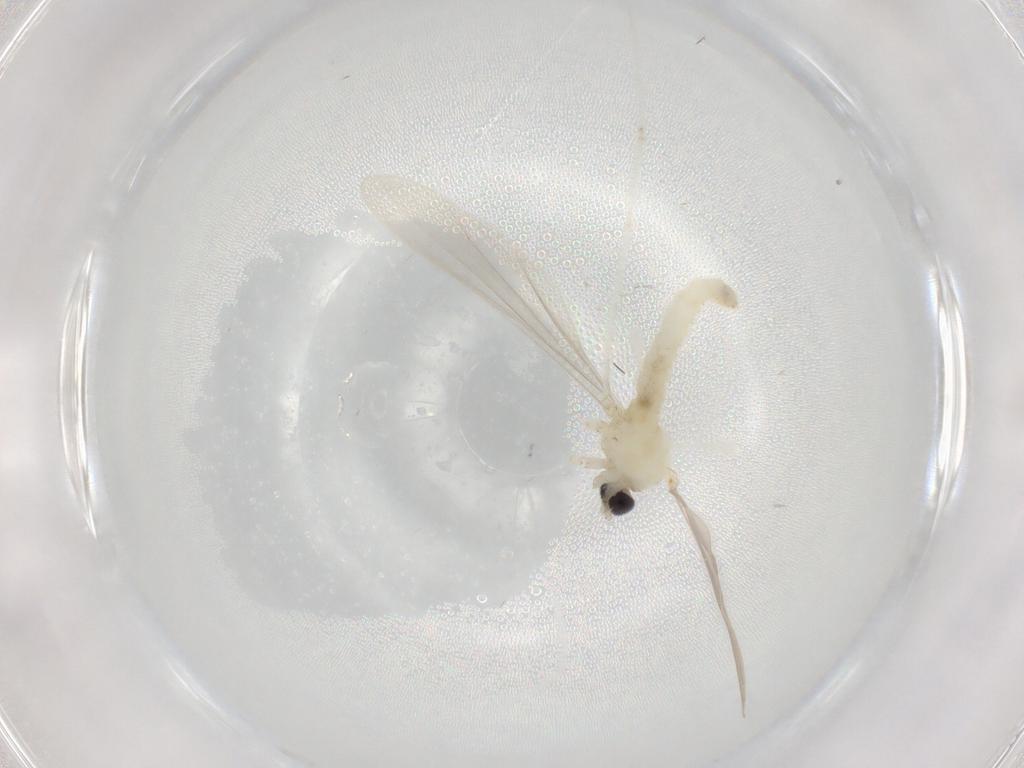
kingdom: Animalia
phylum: Arthropoda
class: Insecta
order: Diptera
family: Cecidomyiidae
